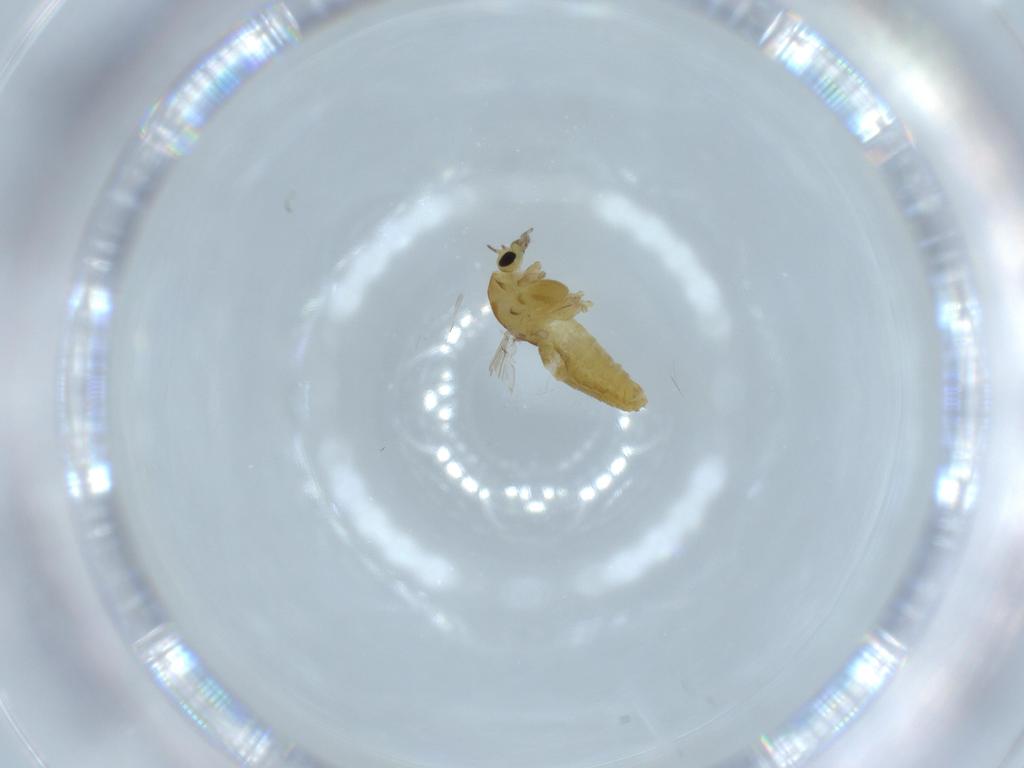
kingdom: Animalia
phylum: Arthropoda
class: Insecta
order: Diptera
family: Chironomidae
